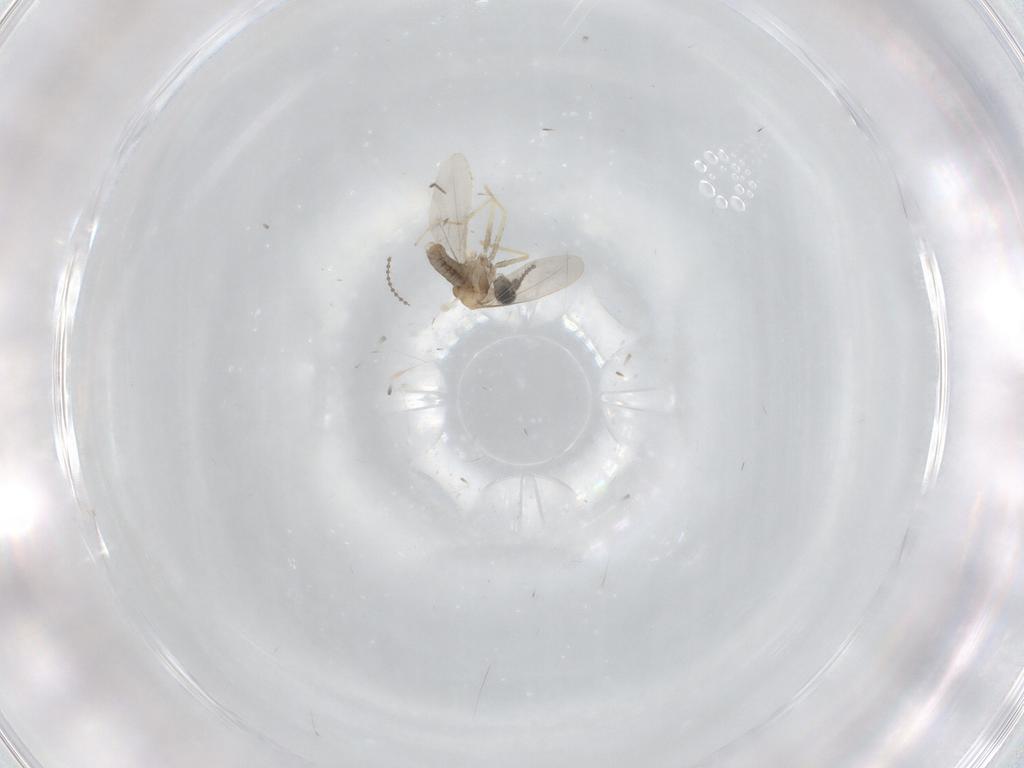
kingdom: Animalia
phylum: Arthropoda
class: Insecta
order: Diptera
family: Cecidomyiidae
